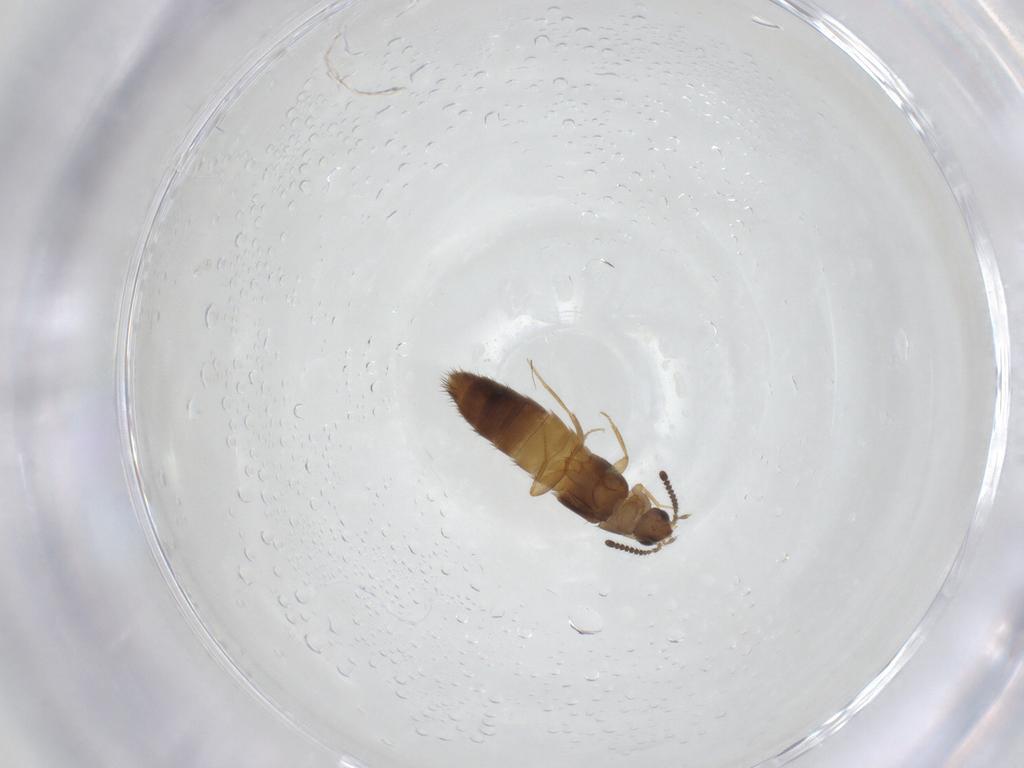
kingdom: Animalia
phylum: Arthropoda
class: Insecta
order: Coleoptera
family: Staphylinidae
